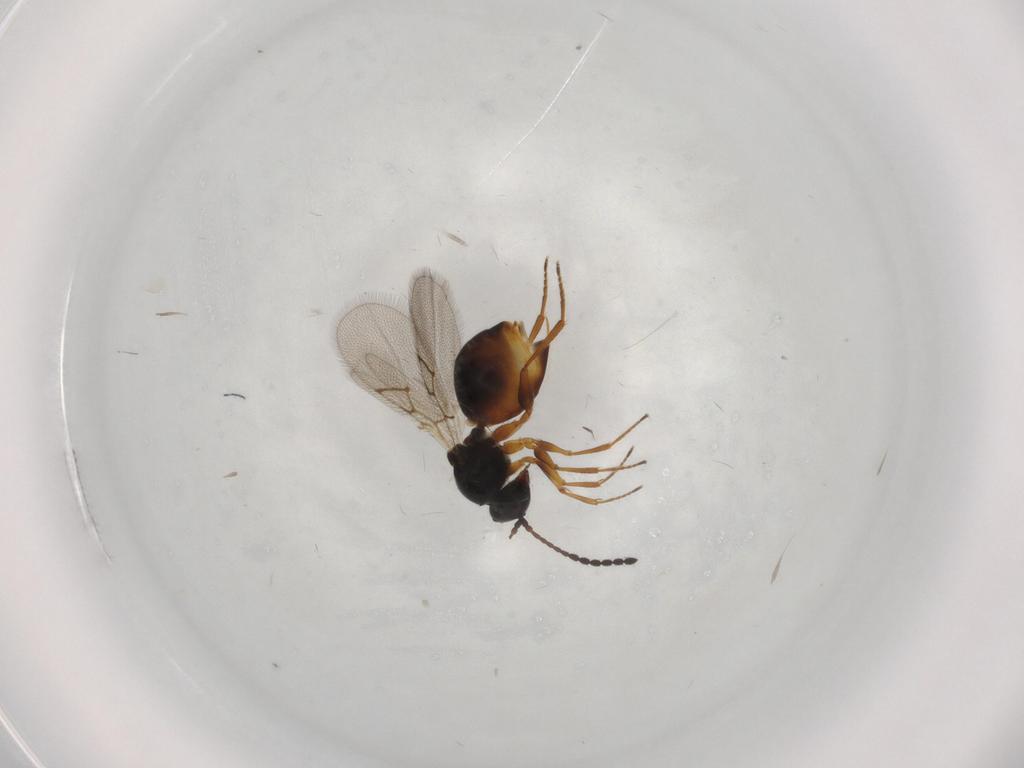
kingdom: Animalia
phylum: Arthropoda
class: Insecta
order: Hymenoptera
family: Figitidae
